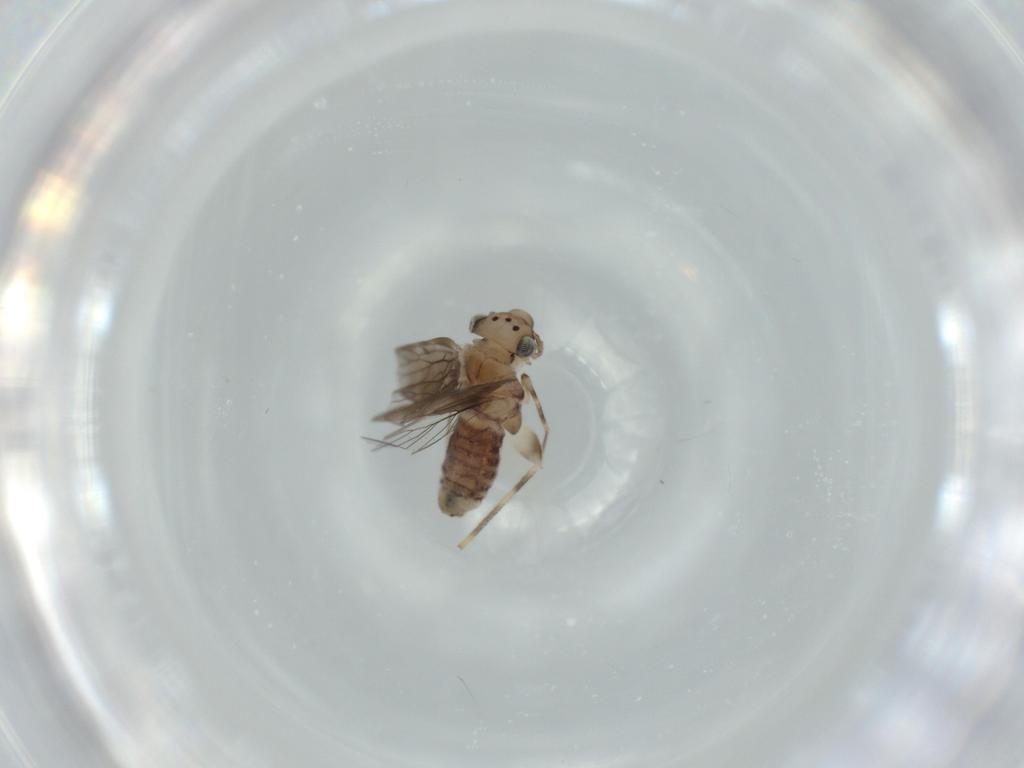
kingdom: Animalia
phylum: Arthropoda
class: Insecta
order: Psocodea
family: Lepidopsocidae
